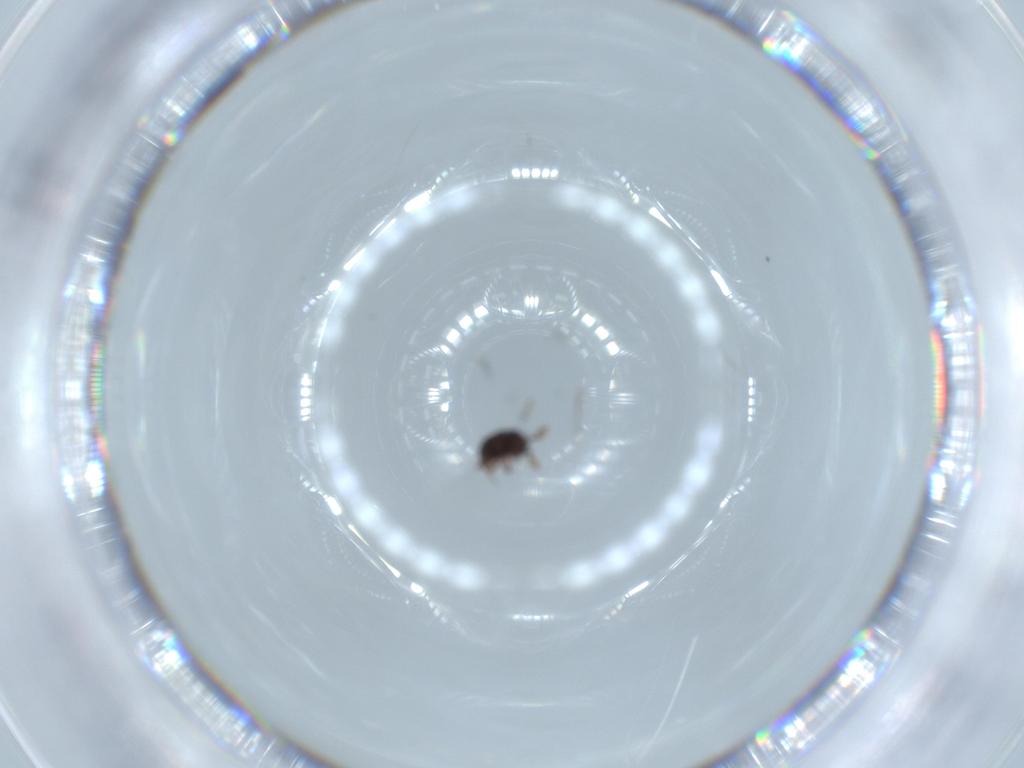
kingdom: Animalia
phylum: Arthropoda
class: Insecta
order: Hymenoptera
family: Scelionidae
